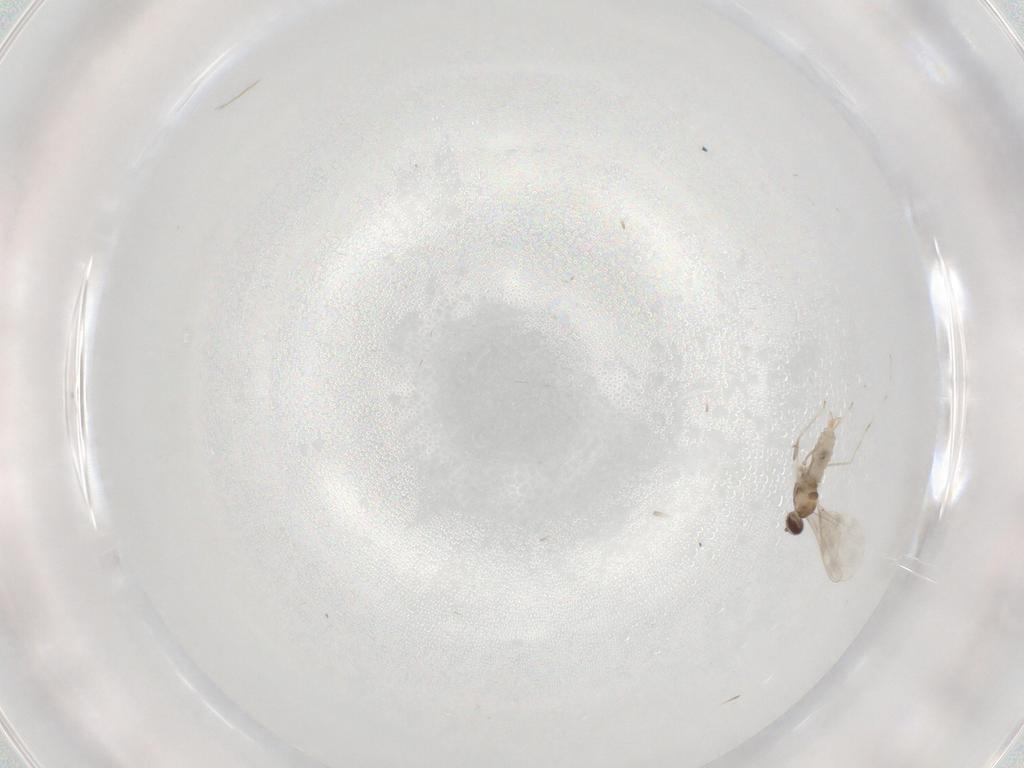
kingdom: Animalia
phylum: Arthropoda
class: Insecta
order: Diptera
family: Cecidomyiidae
